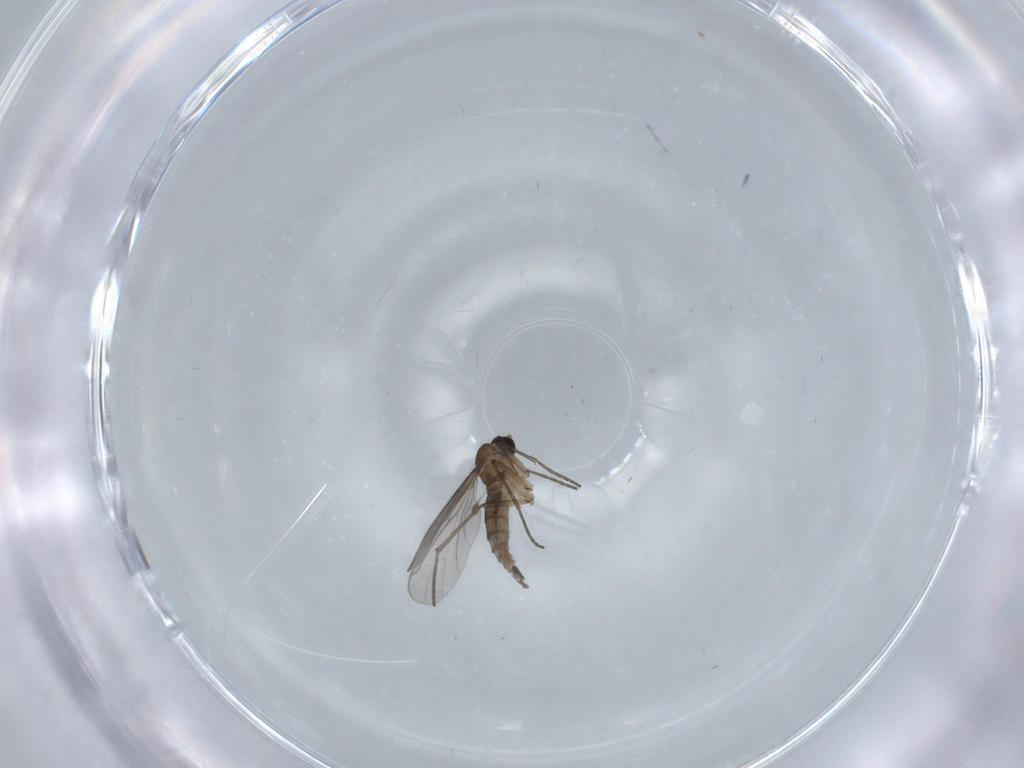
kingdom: Animalia
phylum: Arthropoda
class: Insecta
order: Diptera
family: Sciaridae
